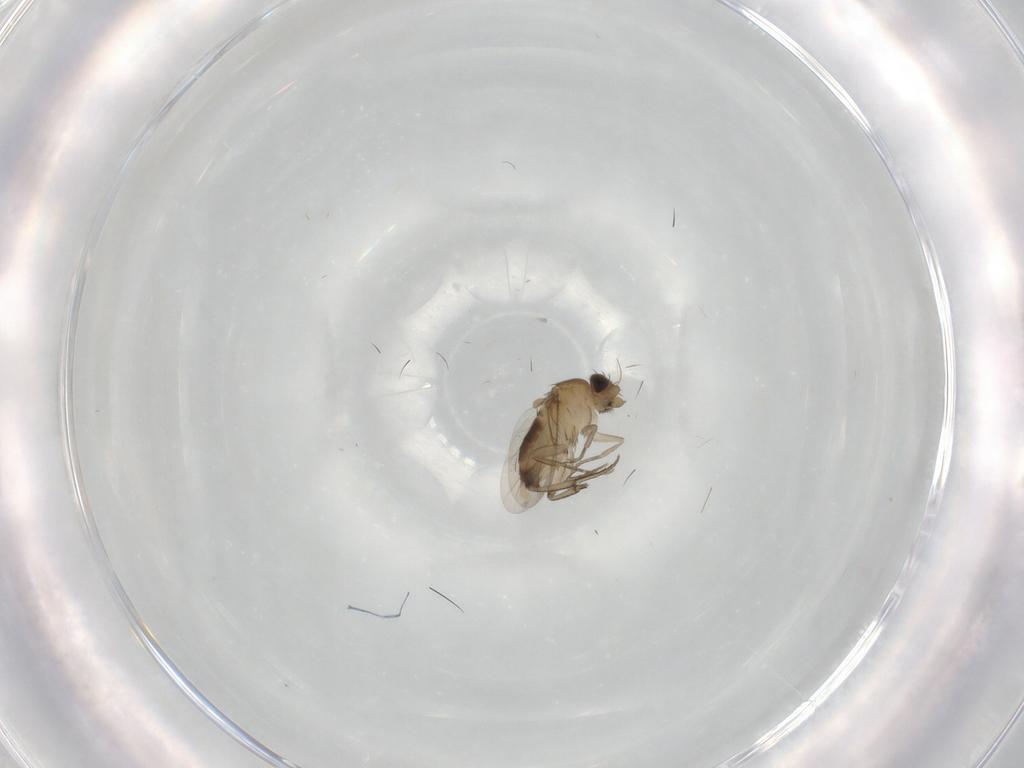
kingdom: Animalia
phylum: Arthropoda
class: Insecta
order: Diptera
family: Phoridae
